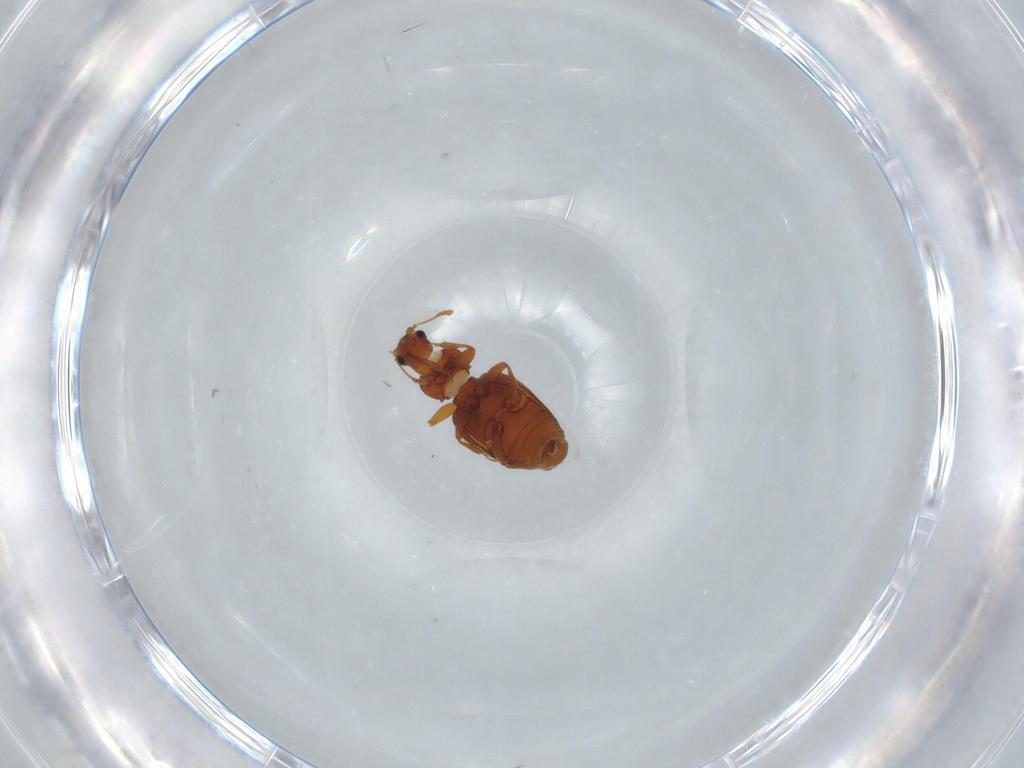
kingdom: Animalia
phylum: Arthropoda
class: Insecta
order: Coleoptera
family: Latridiidae
